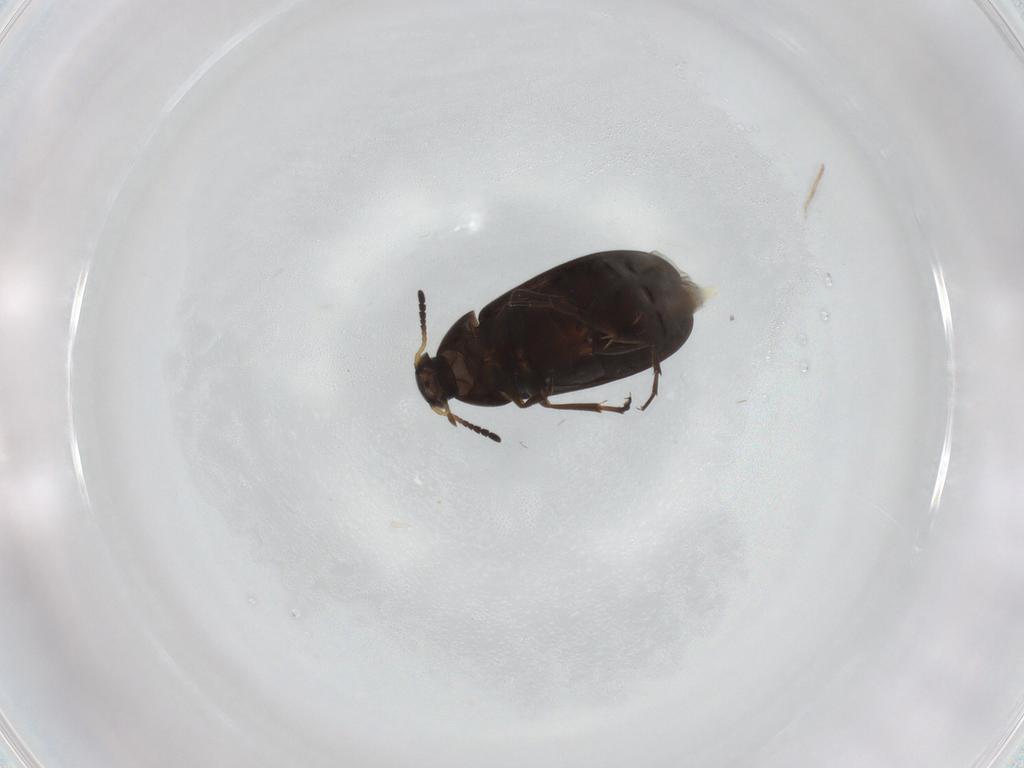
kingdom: Animalia
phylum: Arthropoda
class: Insecta
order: Coleoptera
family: Scraptiidae
